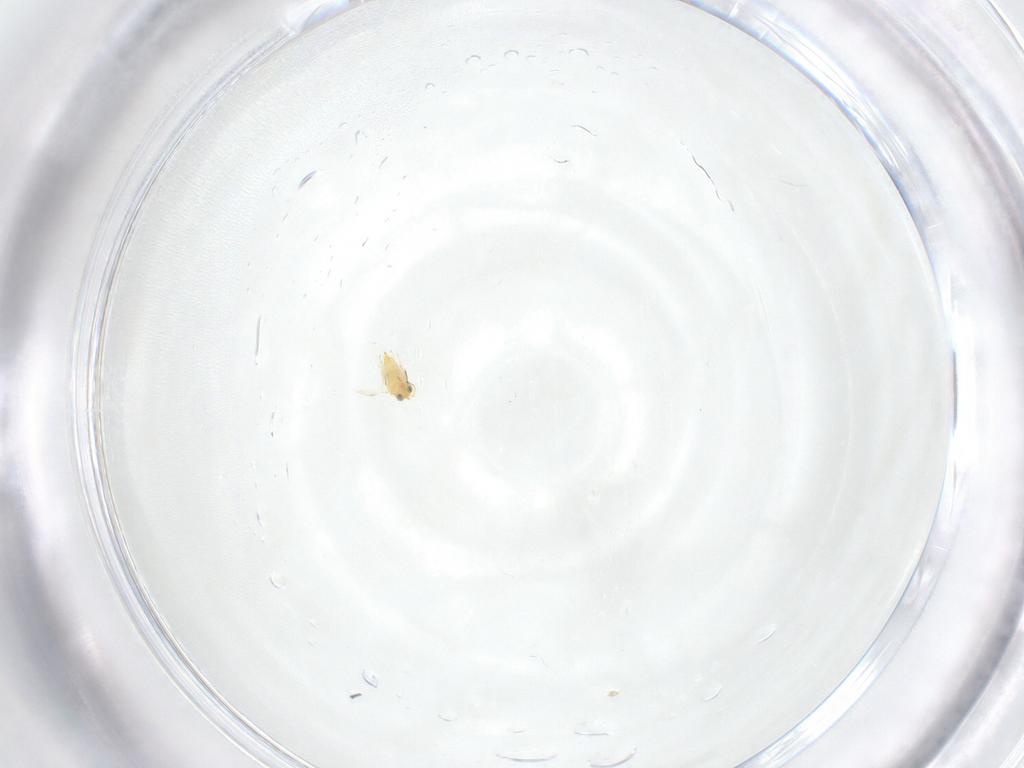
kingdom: Animalia
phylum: Arthropoda
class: Insecta
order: Hymenoptera
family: Aphelinidae
